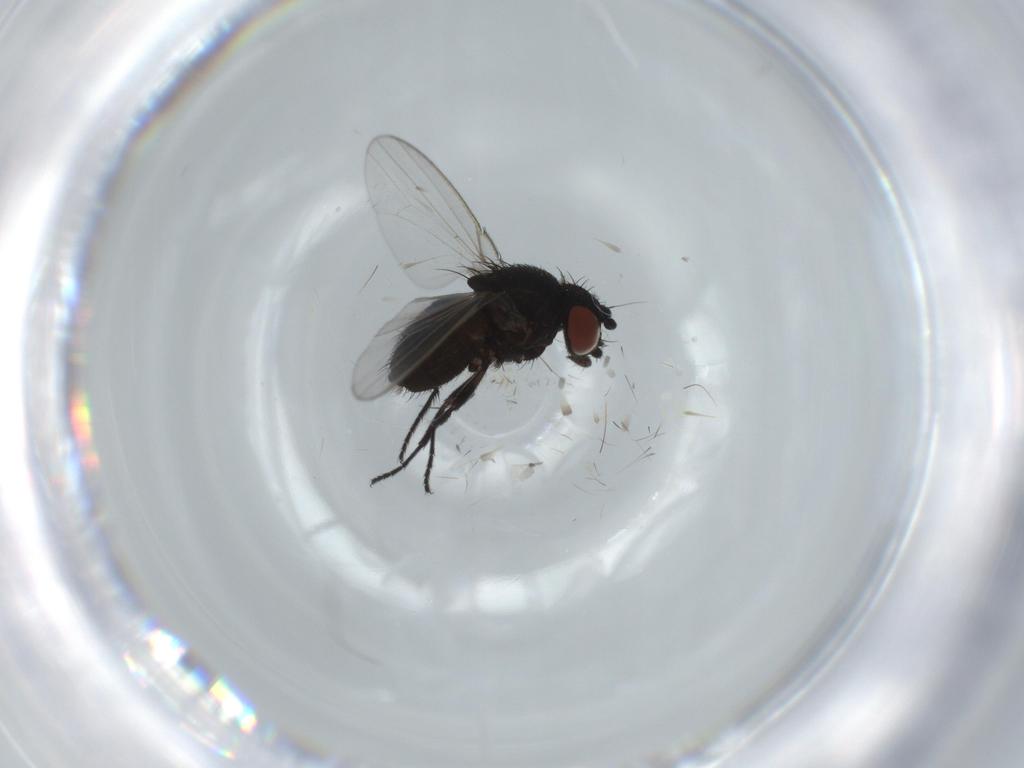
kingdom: Animalia
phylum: Arthropoda
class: Insecta
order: Diptera
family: Milichiidae
